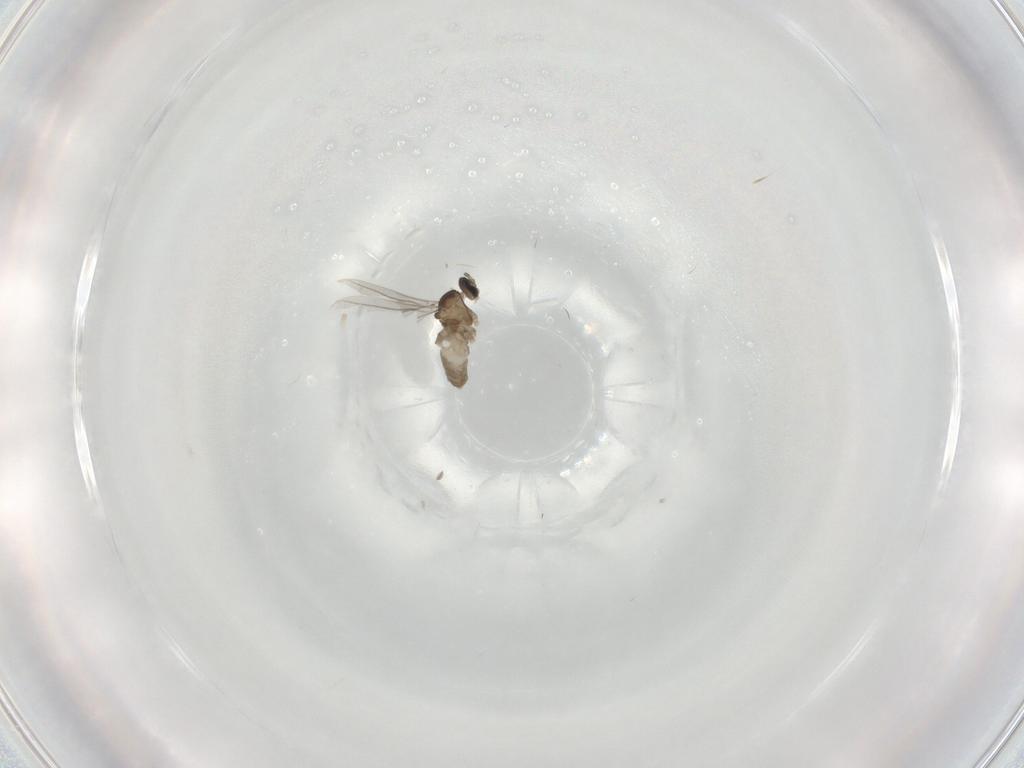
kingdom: Animalia
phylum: Arthropoda
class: Insecta
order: Diptera
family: Cecidomyiidae
